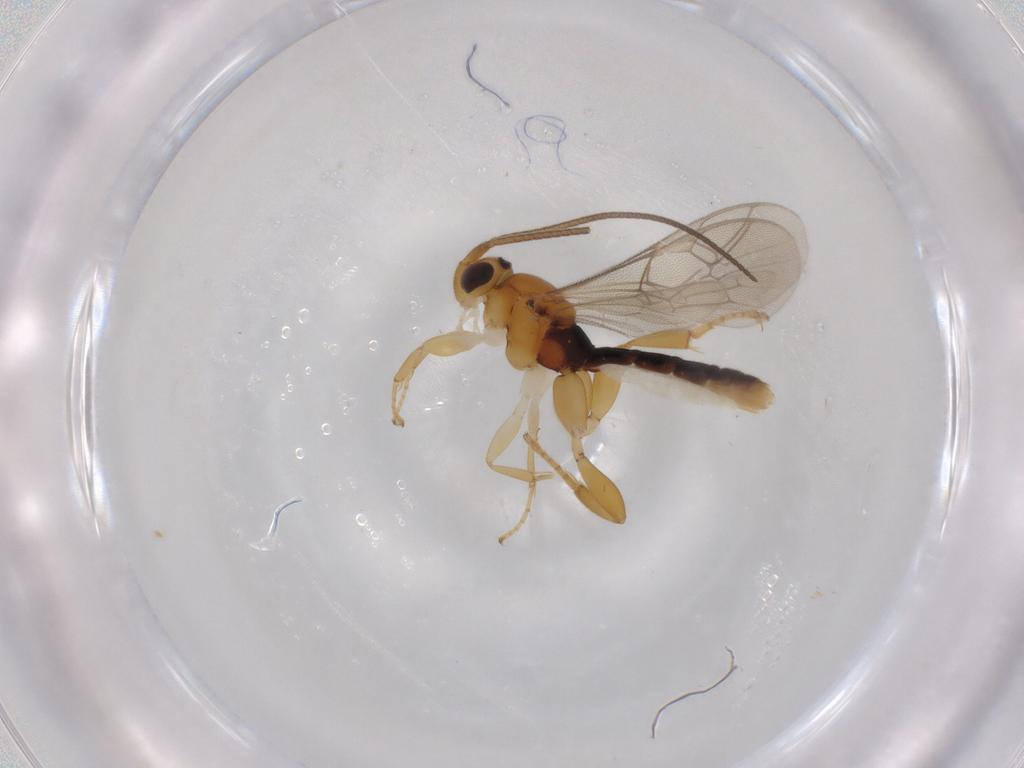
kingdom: Animalia
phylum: Arthropoda
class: Insecta
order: Hymenoptera
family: Ichneumonidae
